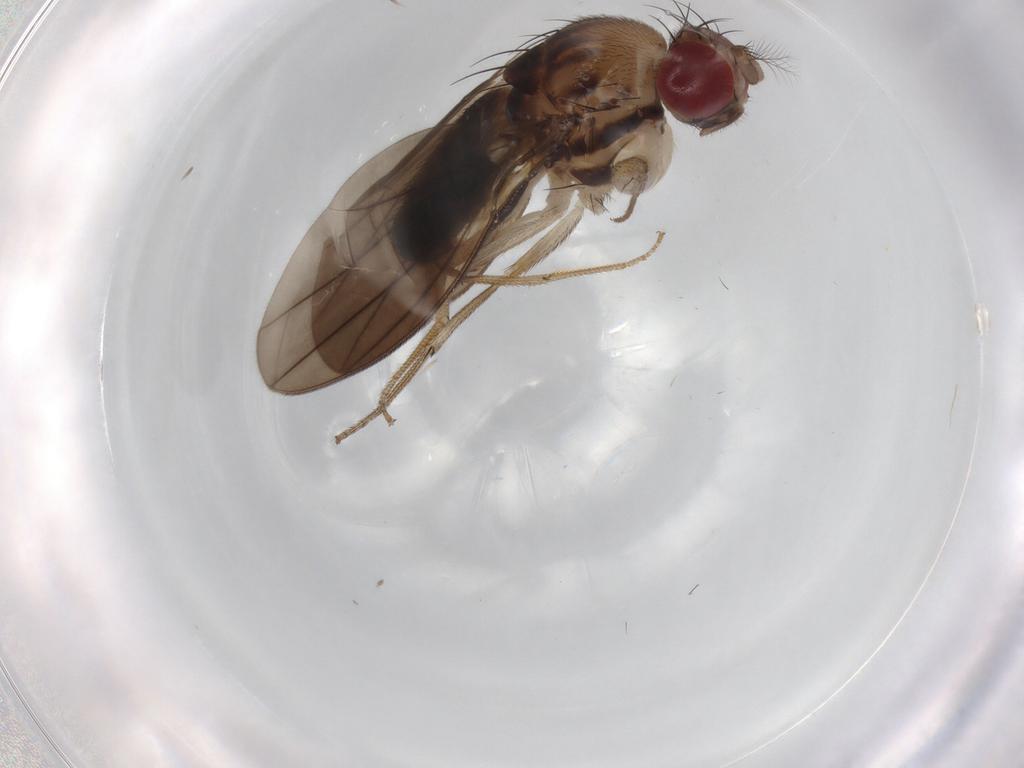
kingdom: Animalia
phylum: Arthropoda
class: Insecta
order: Diptera
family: Drosophilidae
